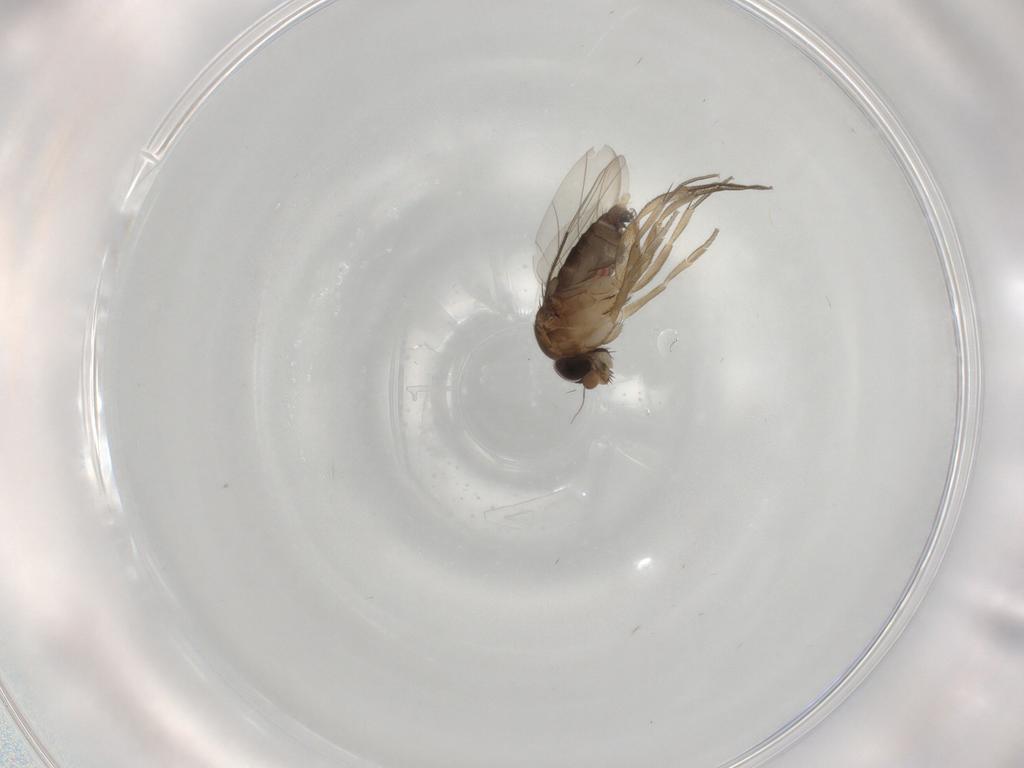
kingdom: Animalia
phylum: Arthropoda
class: Insecta
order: Diptera
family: Phoridae
